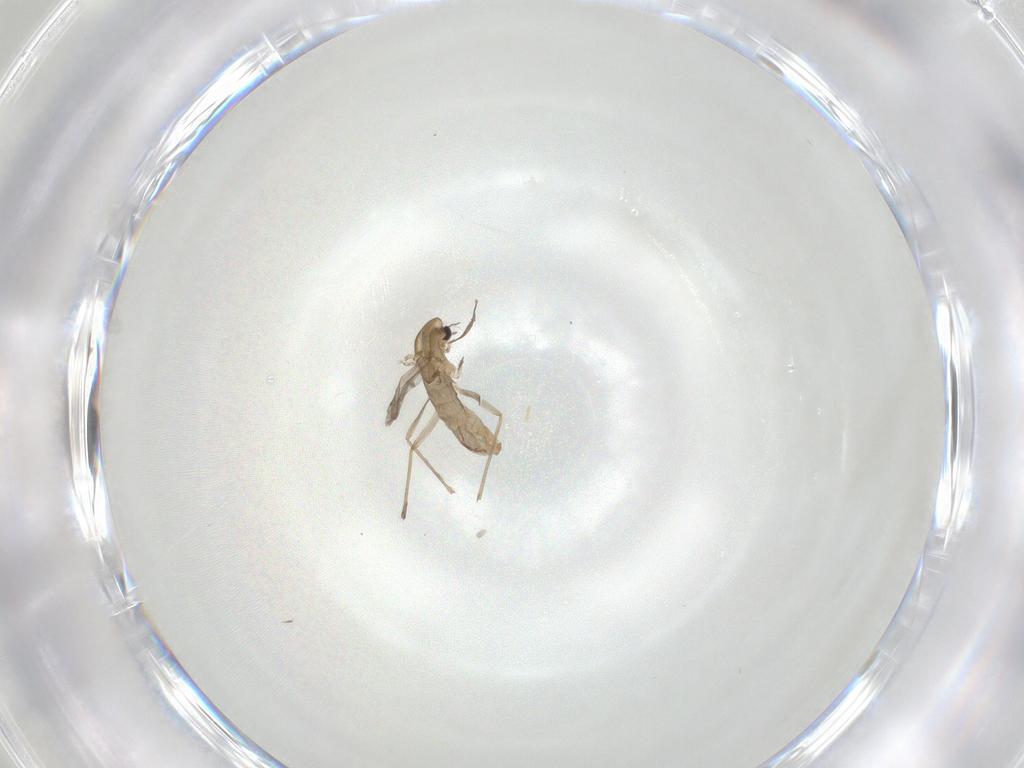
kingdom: Animalia
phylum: Arthropoda
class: Insecta
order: Diptera
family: Chironomidae
